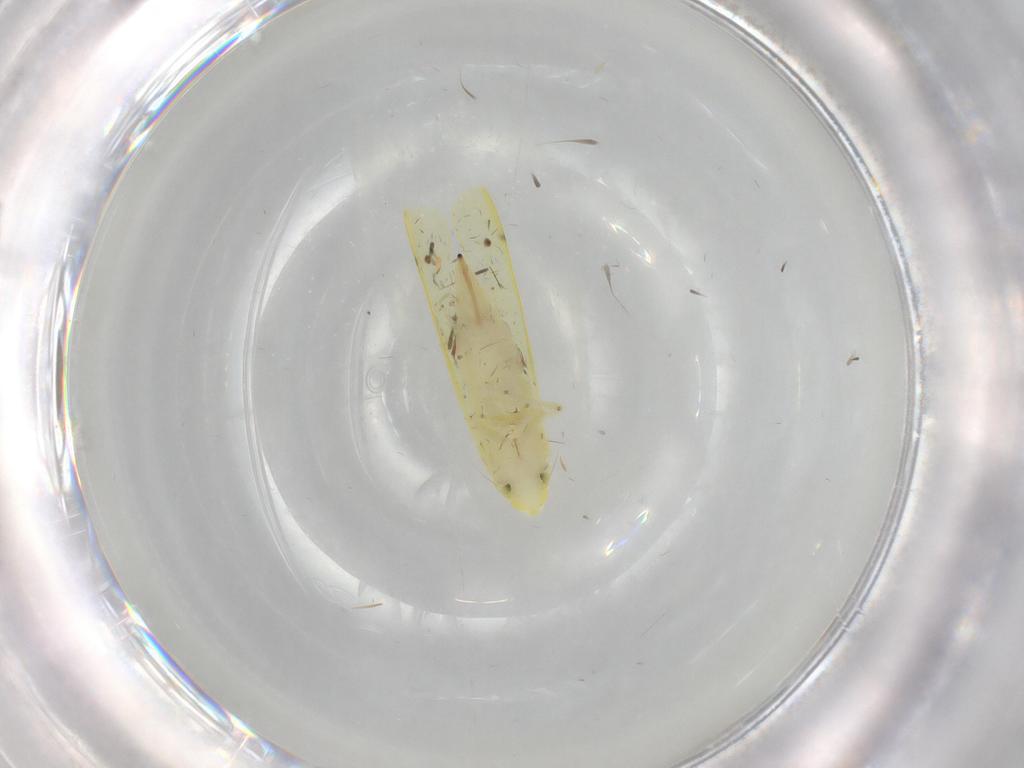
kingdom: Animalia
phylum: Arthropoda
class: Insecta
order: Hemiptera
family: Cicadellidae
